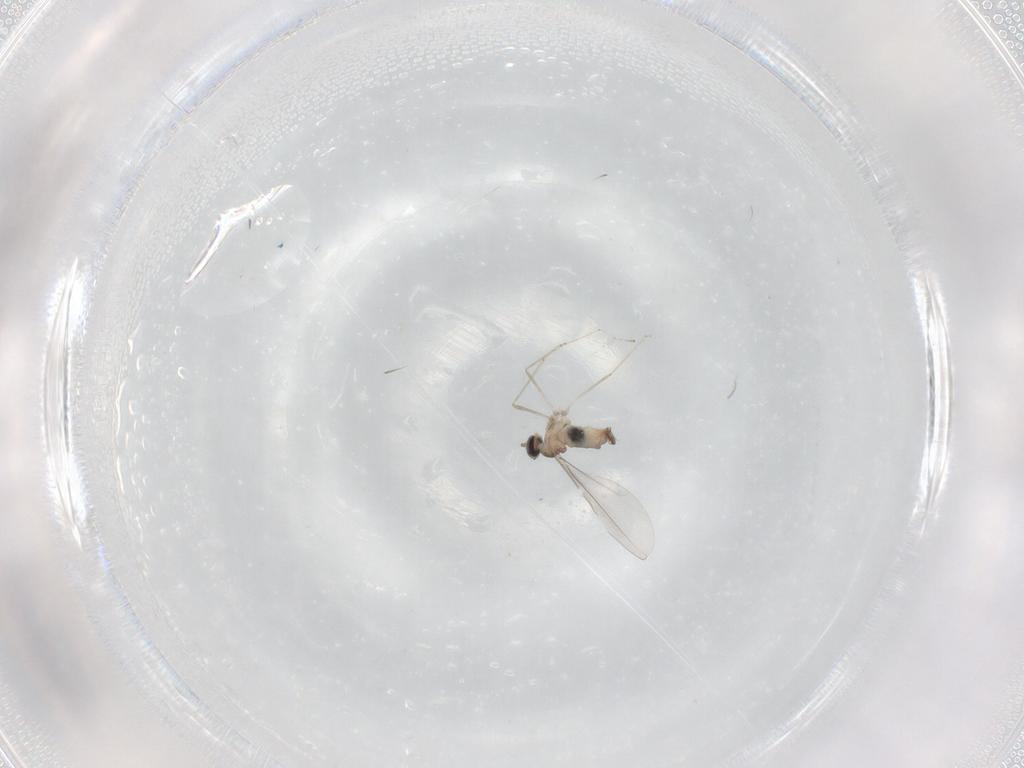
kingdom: Animalia
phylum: Arthropoda
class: Insecta
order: Diptera
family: Cecidomyiidae
